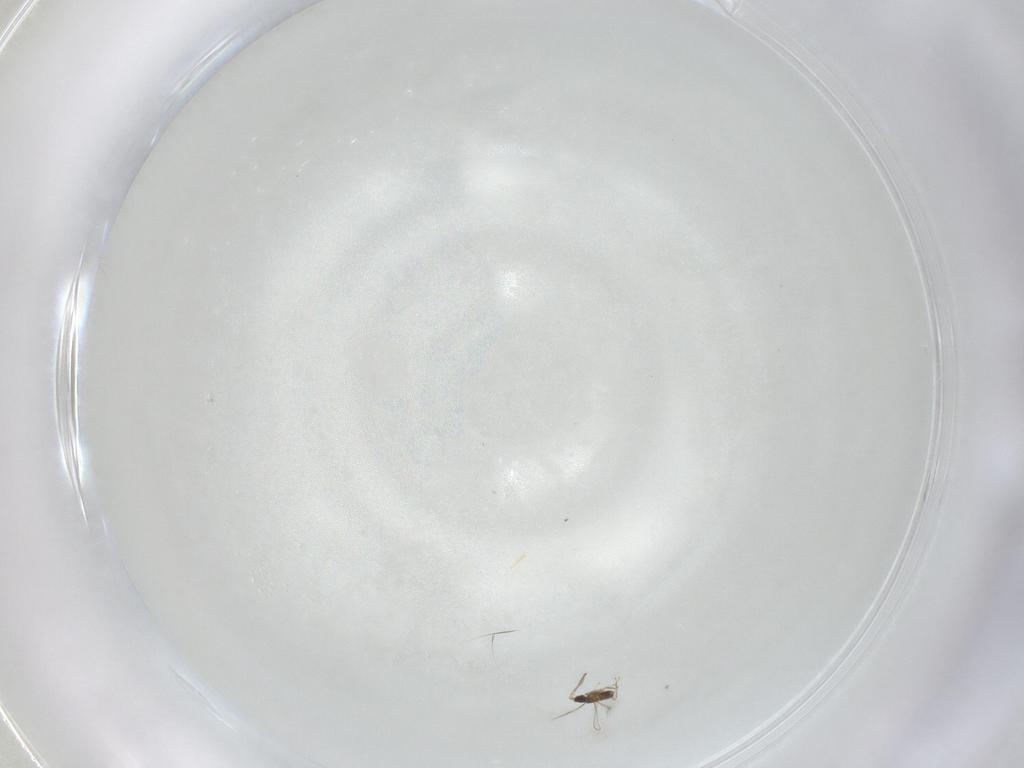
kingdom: Animalia
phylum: Arthropoda
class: Insecta
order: Hymenoptera
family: Mymaridae
